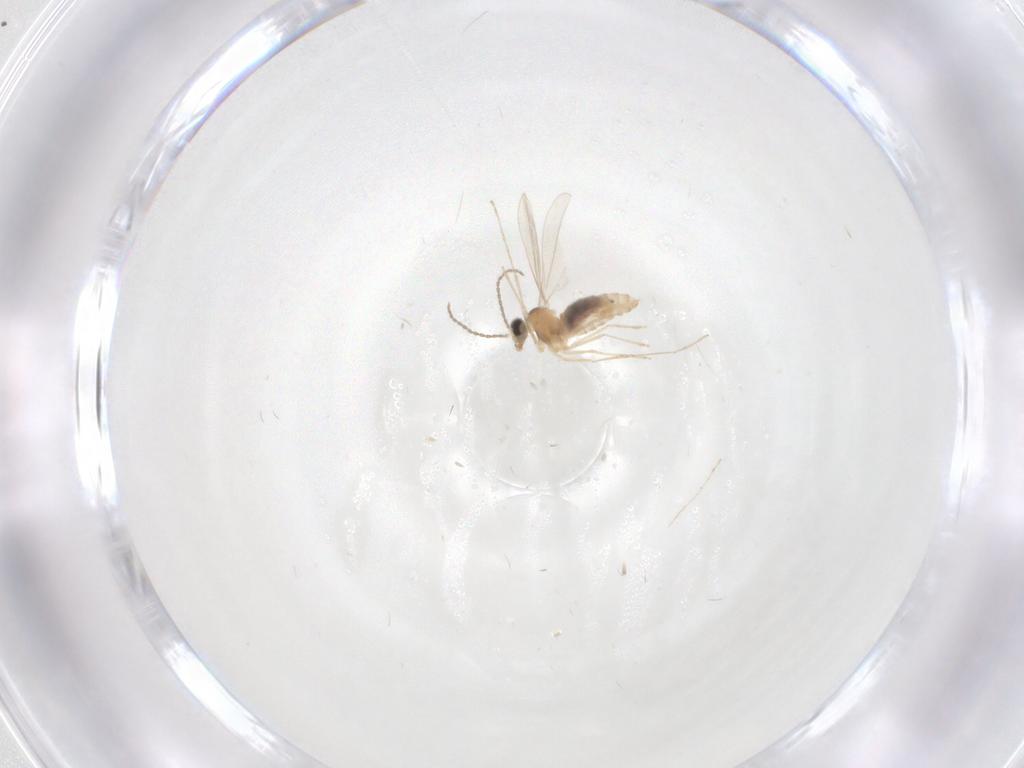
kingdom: Animalia
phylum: Arthropoda
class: Insecta
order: Diptera
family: Cecidomyiidae
